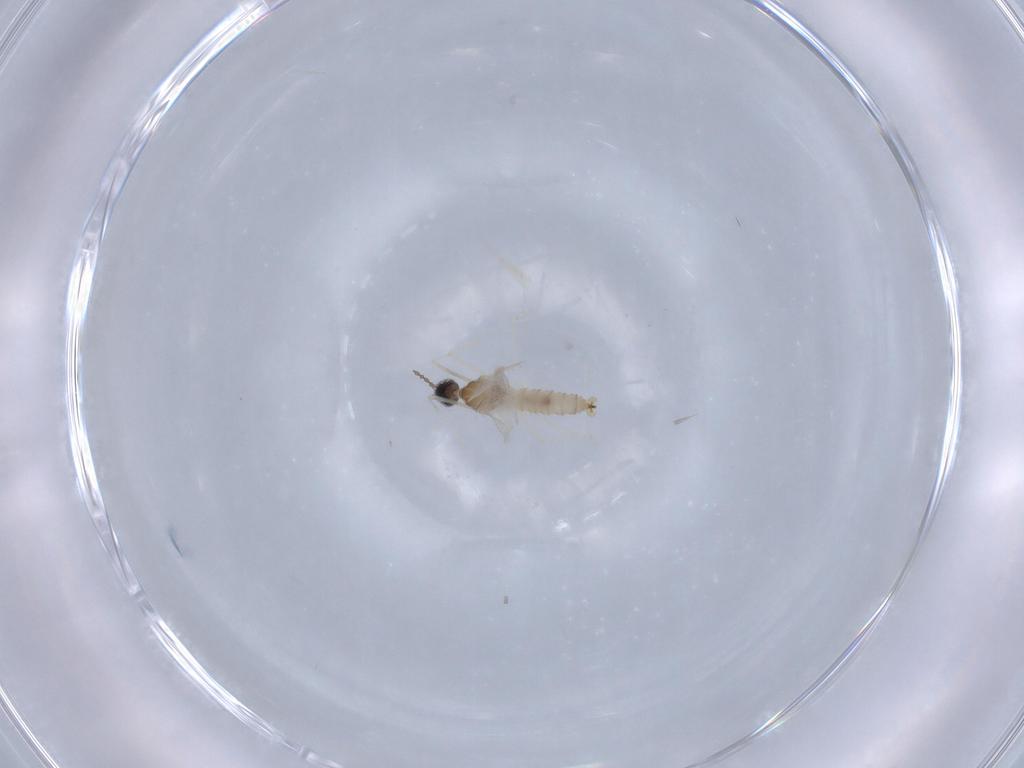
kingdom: Animalia
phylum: Arthropoda
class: Insecta
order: Diptera
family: Cecidomyiidae
